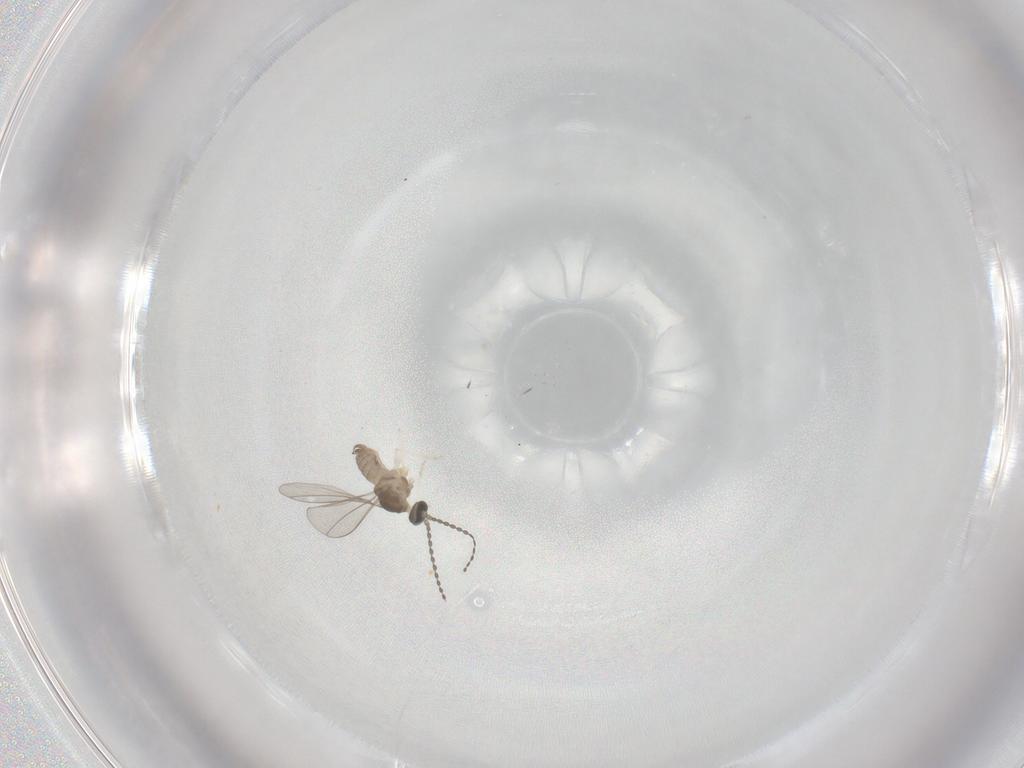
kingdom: Animalia
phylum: Arthropoda
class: Insecta
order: Diptera
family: Cecidomyiidae
